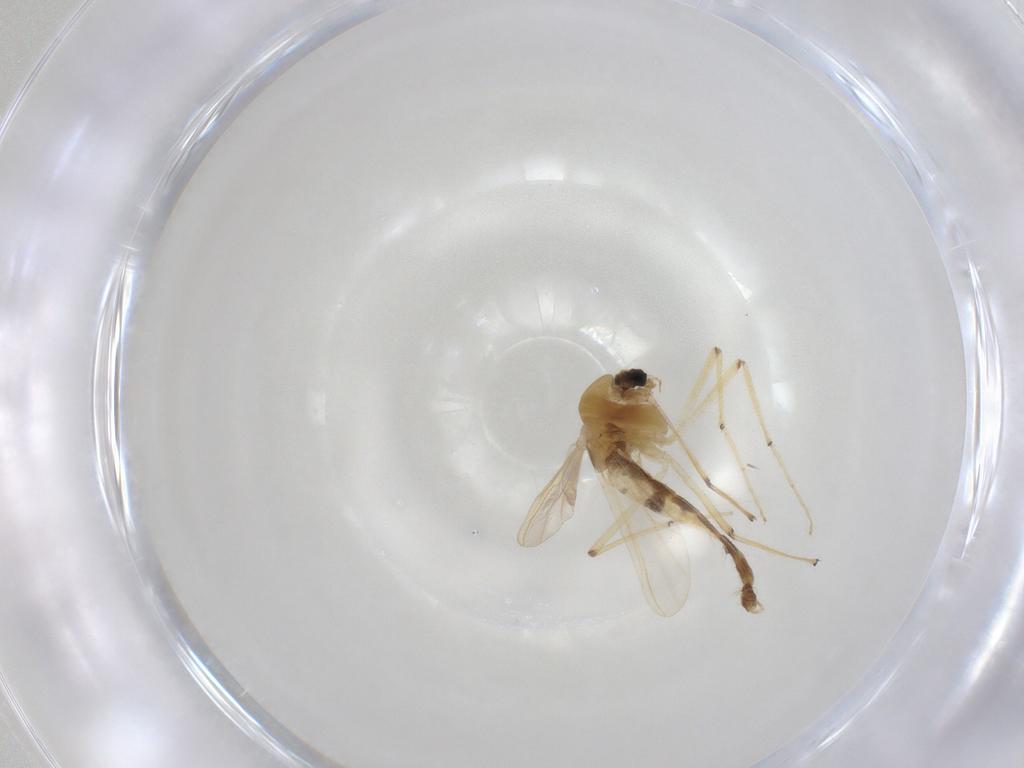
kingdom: Animalia
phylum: Arthropoda
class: Insecta
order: Diptera
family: Chironomidae
